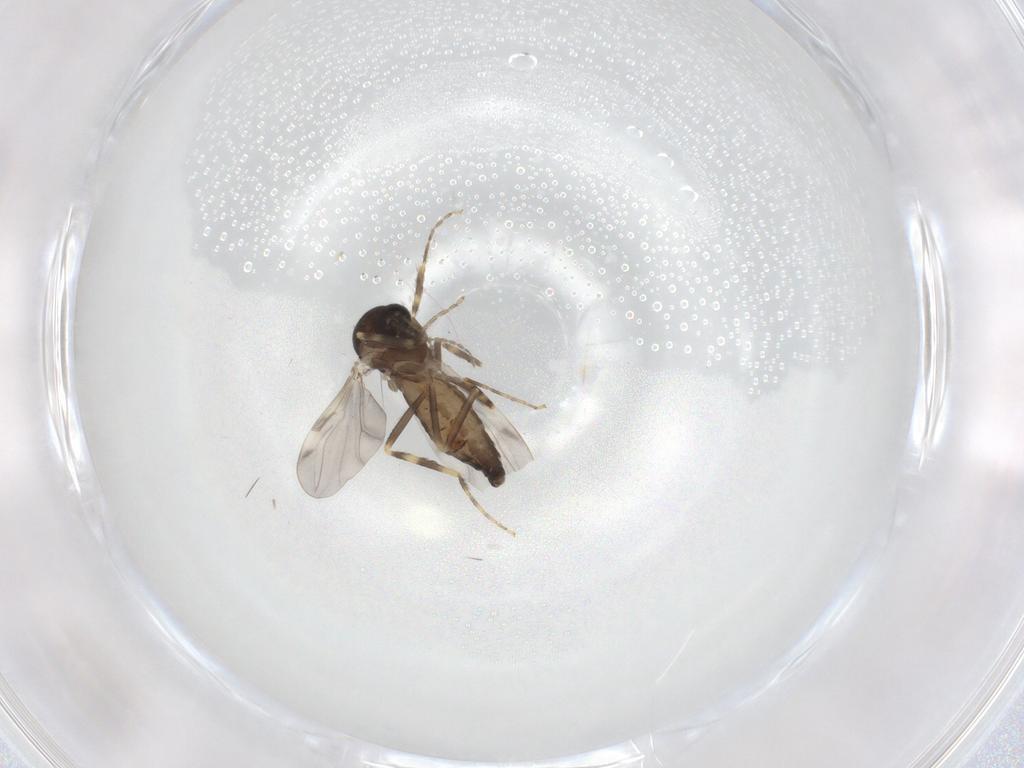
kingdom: Animalia
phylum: Arthropoda
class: Insecta
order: Diptera
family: Ceratopogonidae
